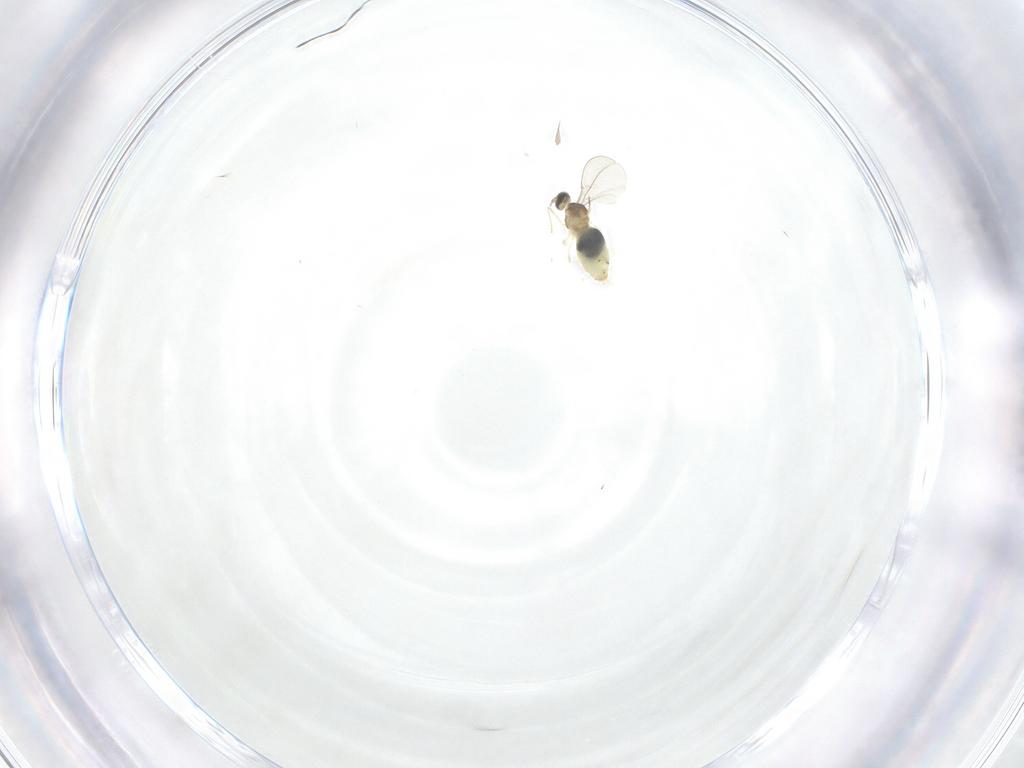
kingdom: Animalia
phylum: Arthropoda
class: Insecta
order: Diptera
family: Cecidomyiidae
